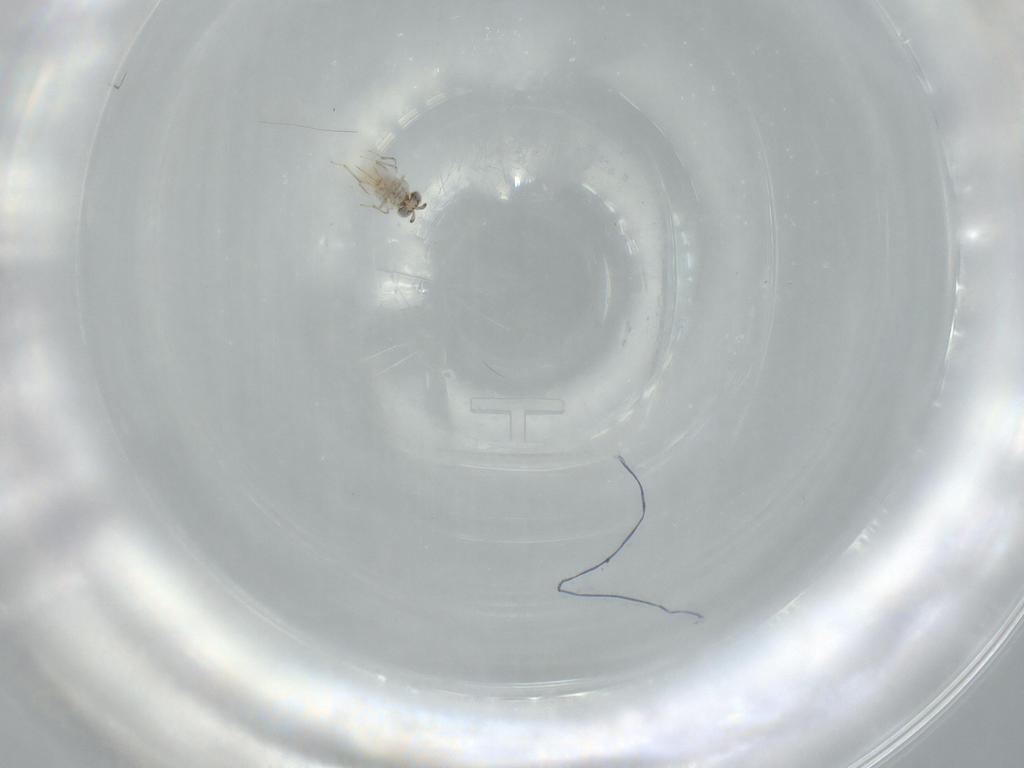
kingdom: Animalia
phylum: Arthropoda
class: Insecta
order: Hymenoptera
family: Aphelinidae
